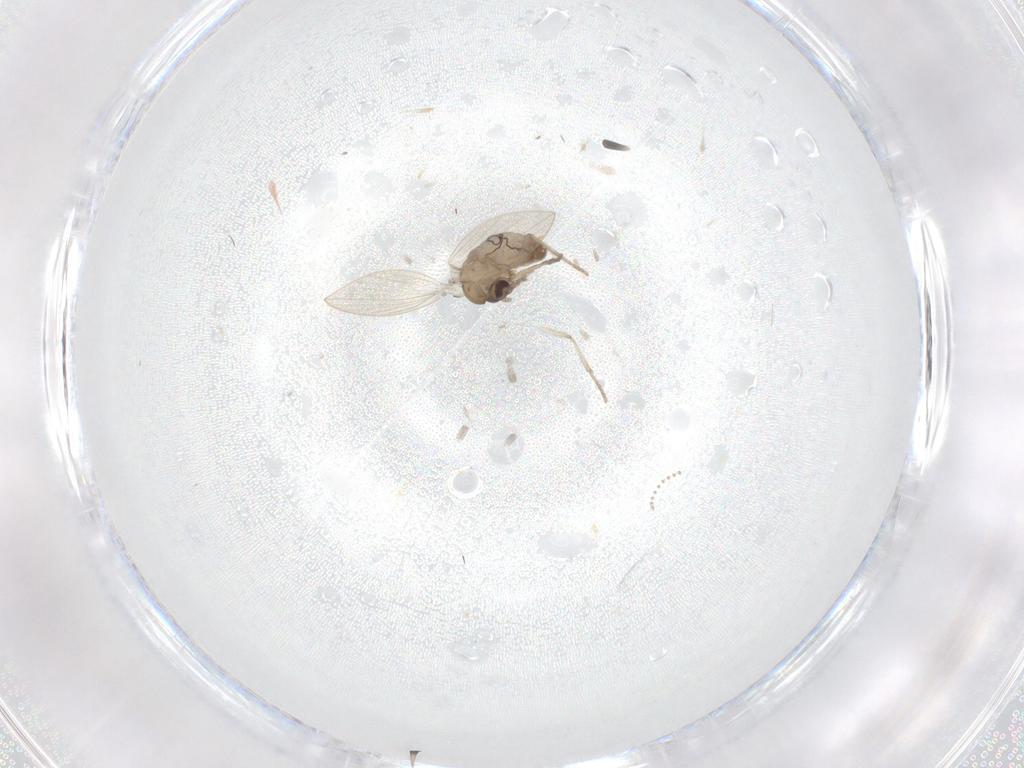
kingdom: Animalia
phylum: Arthropoda
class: Insecta
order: Diptera
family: Psychodidae
